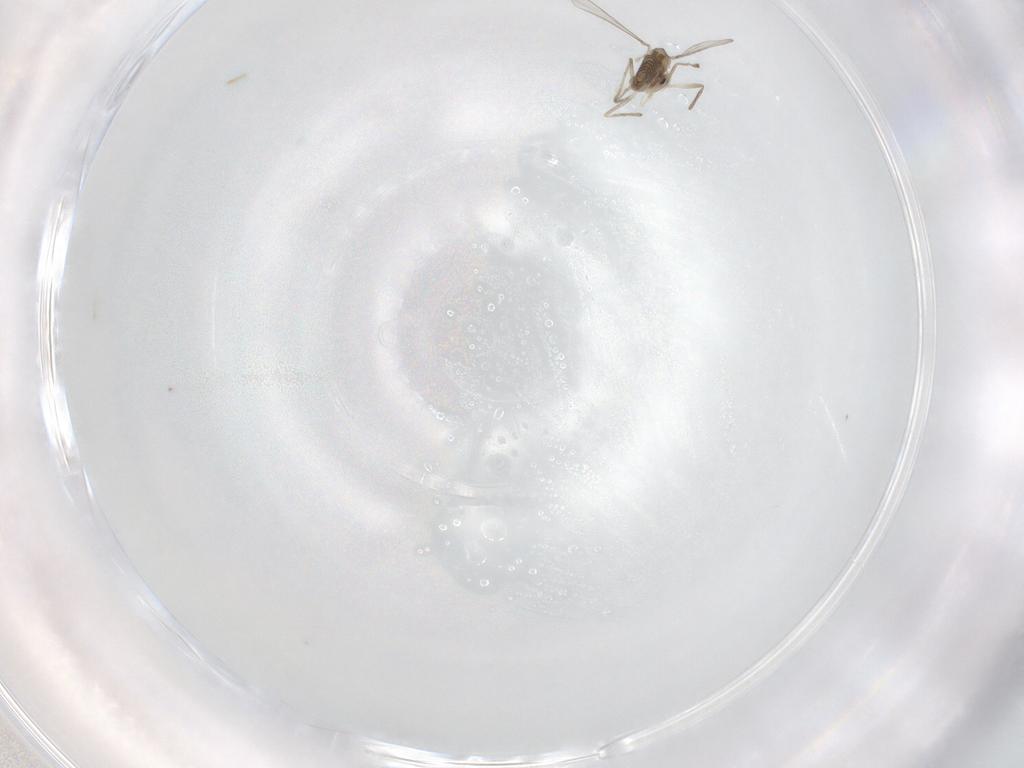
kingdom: Animalia
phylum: Arthropoda
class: Insecta
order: Diptera
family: Chironomidae
